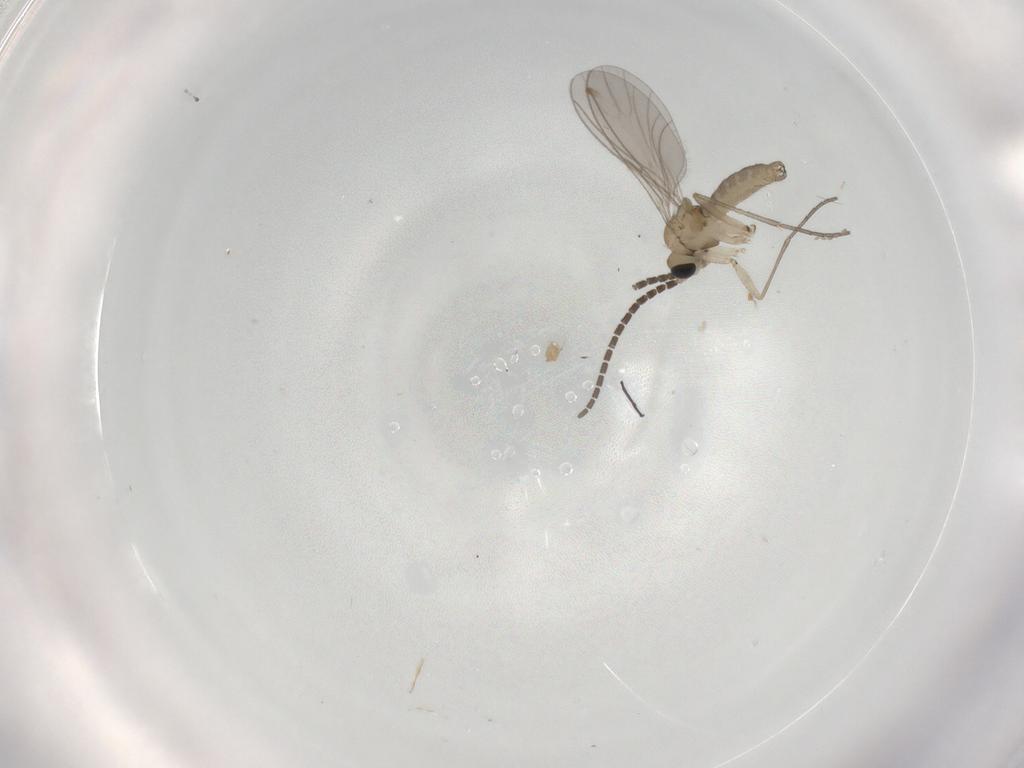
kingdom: Animalia
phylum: Arthropoda
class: Insecta
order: Diptera
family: Sciaridae
